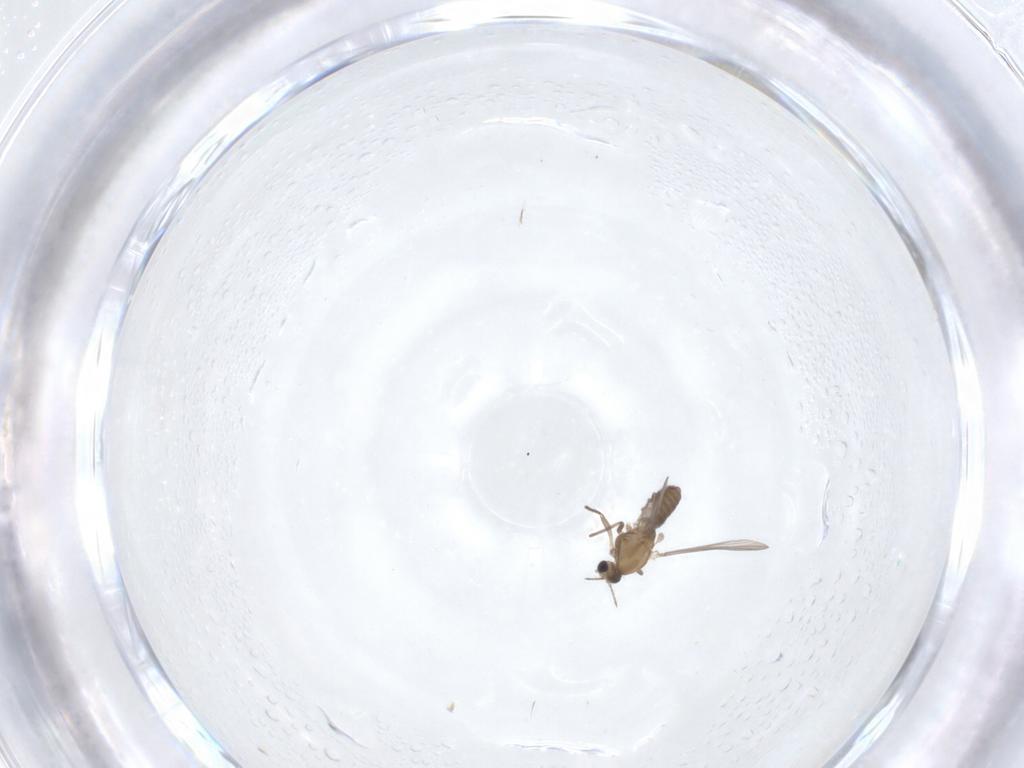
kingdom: Animalia
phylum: Arthropoda
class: Insecta
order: Diptera
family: Chironomidae
